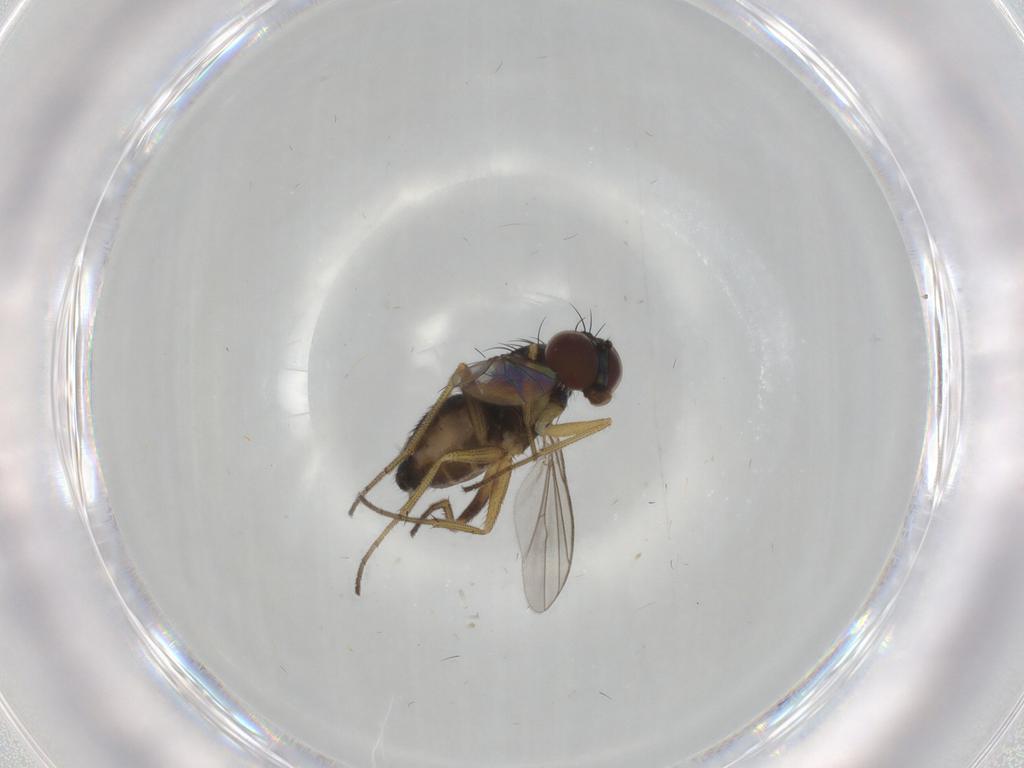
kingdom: Animalia
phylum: Arthropoda
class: Insecta
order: Diptera
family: Dolichopodidae
